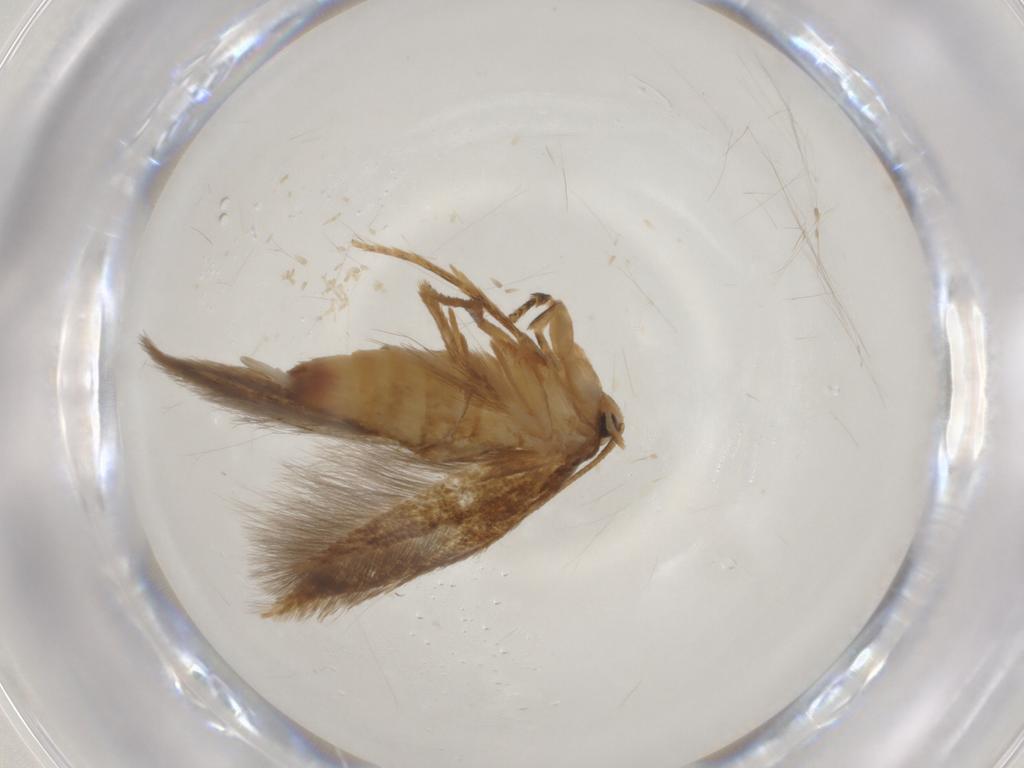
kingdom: Animalia
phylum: Arthropoda
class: Insecta
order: Lepidoptera
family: Tineidae
